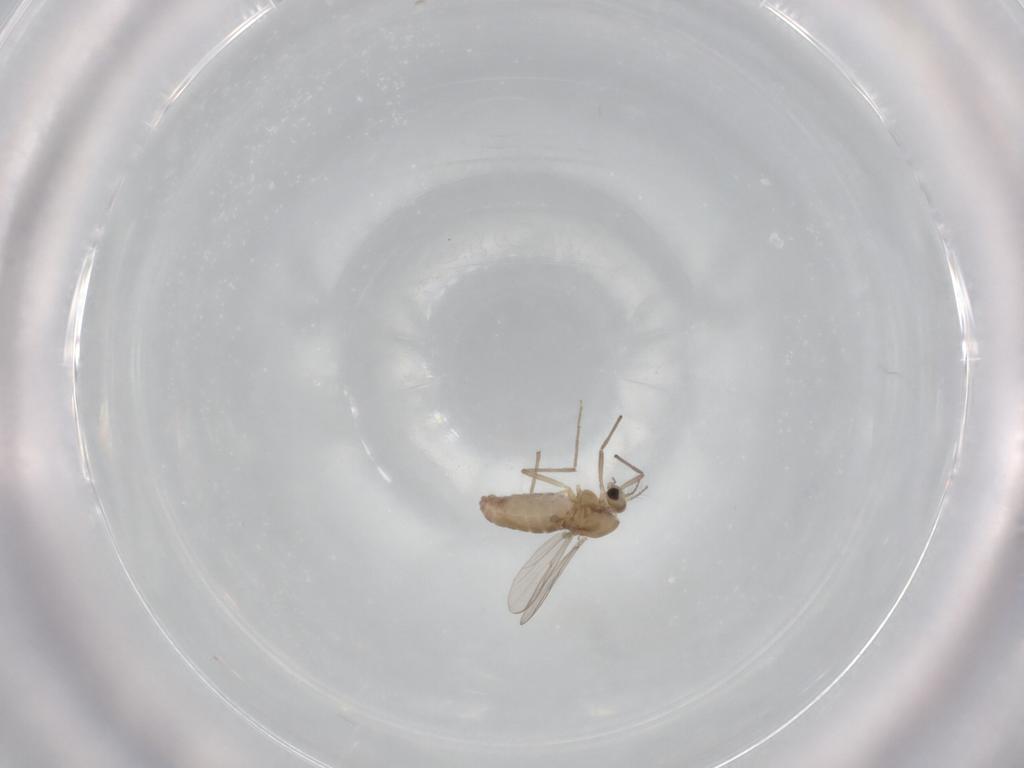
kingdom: Animalia
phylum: Arthropoda
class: Insecta
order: Diptera
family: Chironomidae
